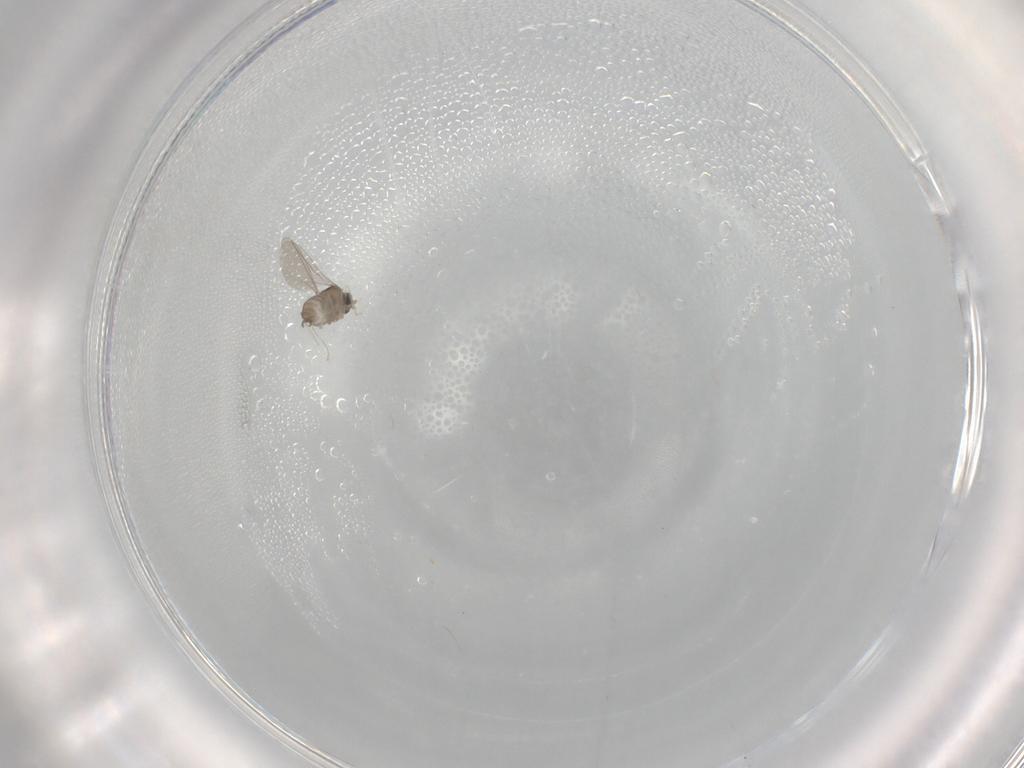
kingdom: Animalia
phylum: Arthropoda
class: Insecta
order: Diptera
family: Cecidomyiidae
